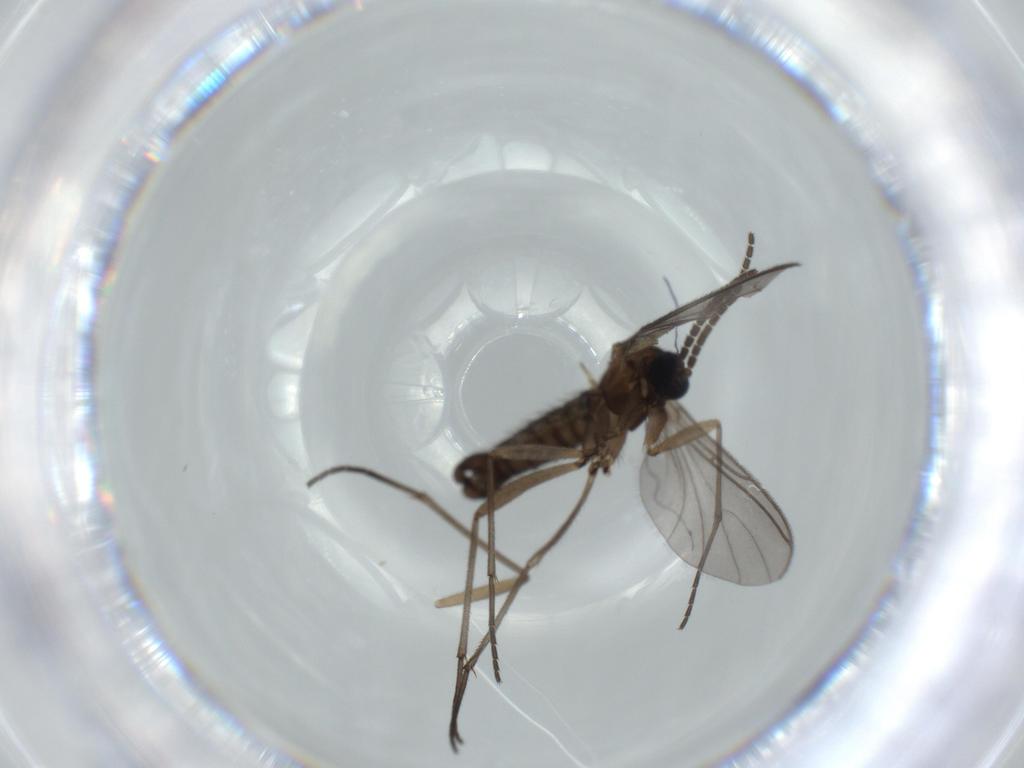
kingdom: Animalia
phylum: Arthropoda
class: Insecta
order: Diptera
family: Sciaridae
